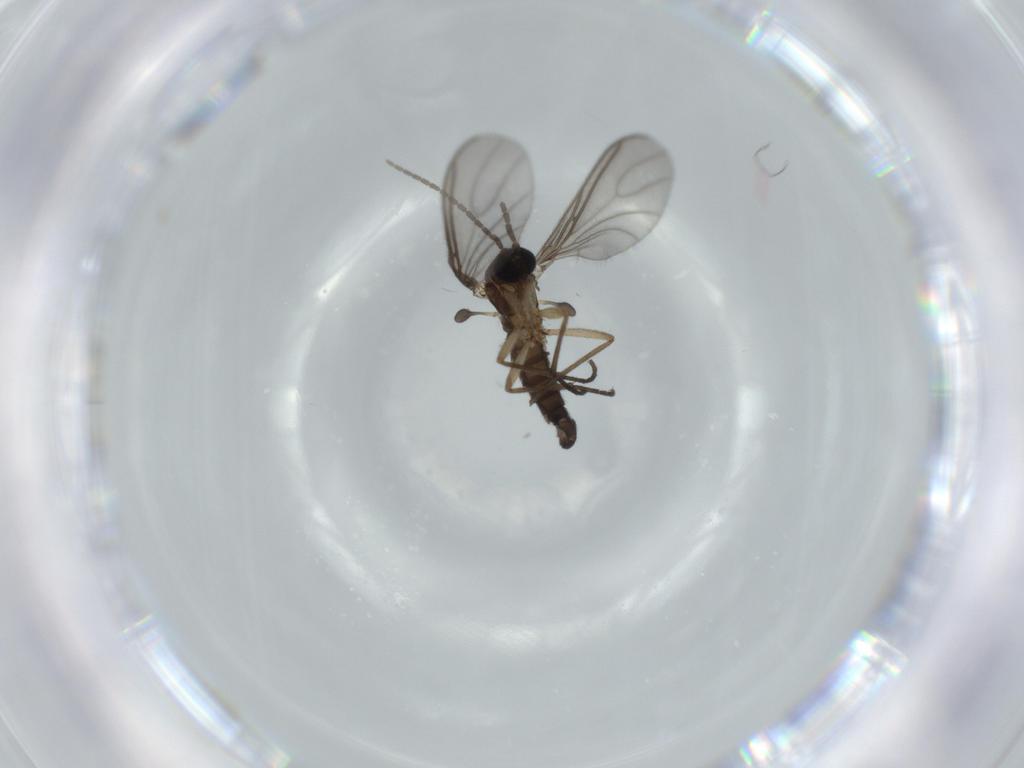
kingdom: Animalia
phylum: Arthropoda
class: Insecta
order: Diptera
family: Sciaridae
